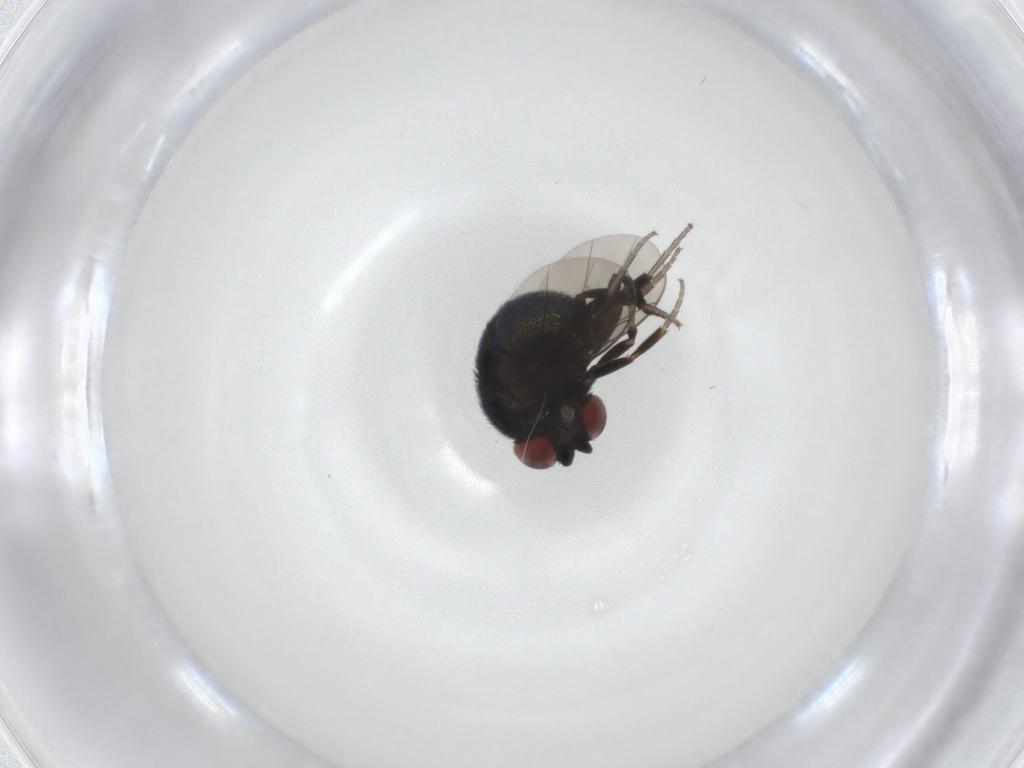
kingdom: Animalia
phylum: Arthropoda
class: Insecta
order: Diptera
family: Cryptochetidae
